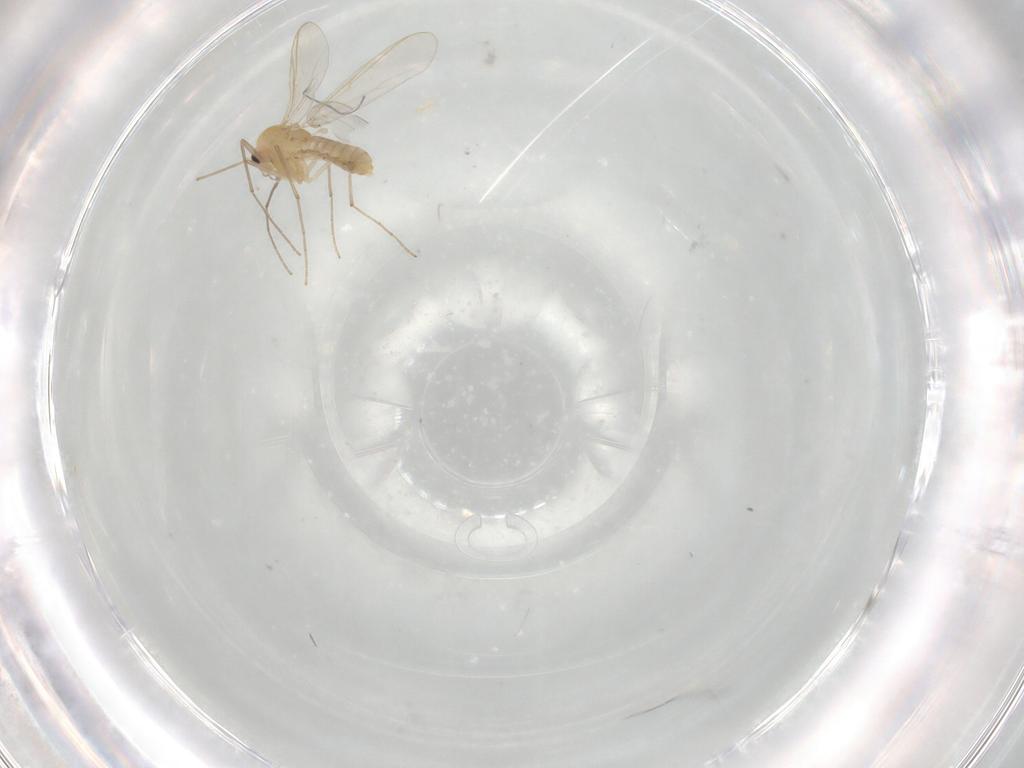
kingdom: Animalia
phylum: Arthropoda
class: Insecta
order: Diptera
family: Chironomidae
